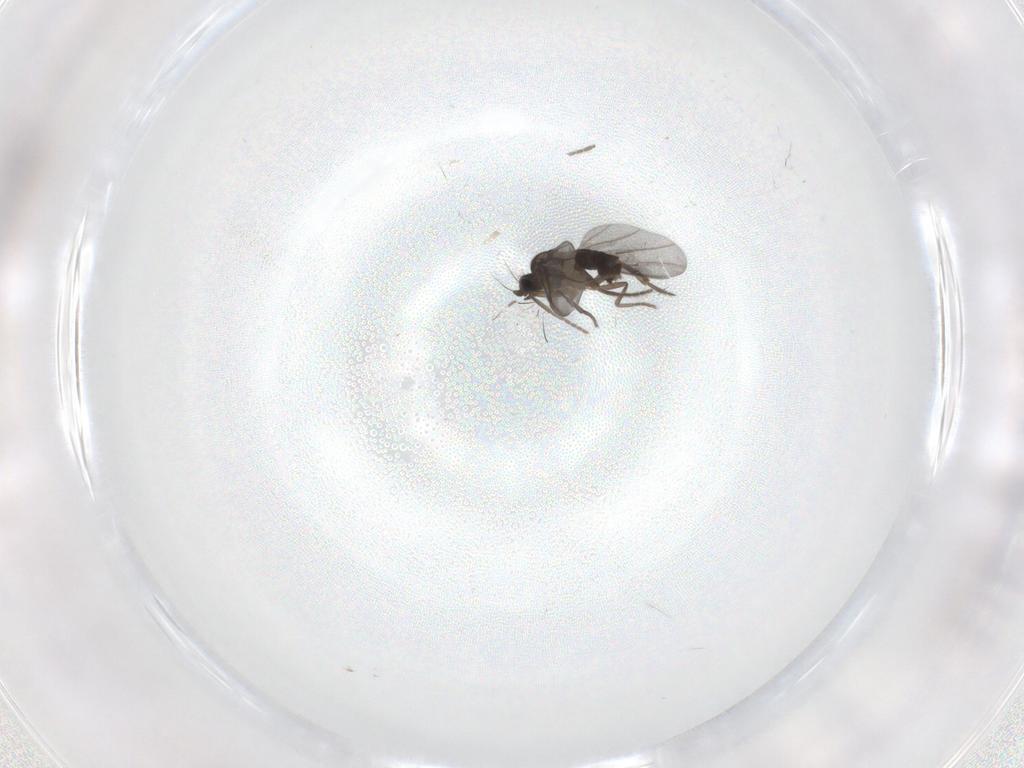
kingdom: Animalia
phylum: Arthropoda
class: Insecta
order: Diptera
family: Phoridae
